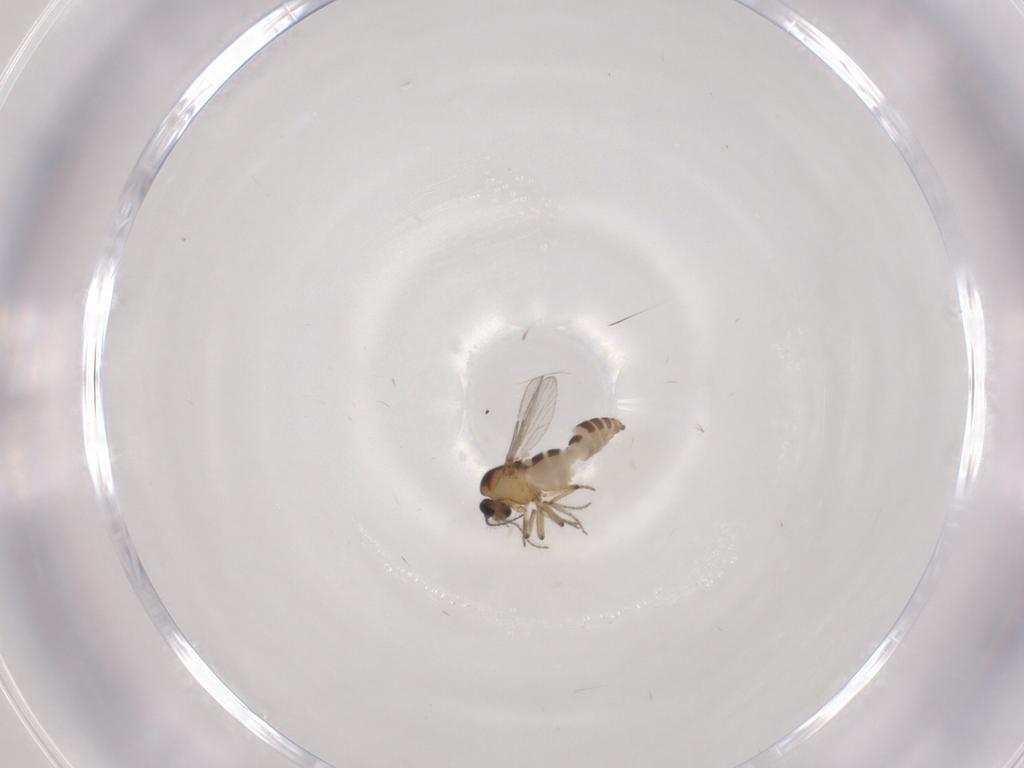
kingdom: Animalia
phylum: Arthropoda
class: Insecta
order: Diptera
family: Ceratopogonidae
